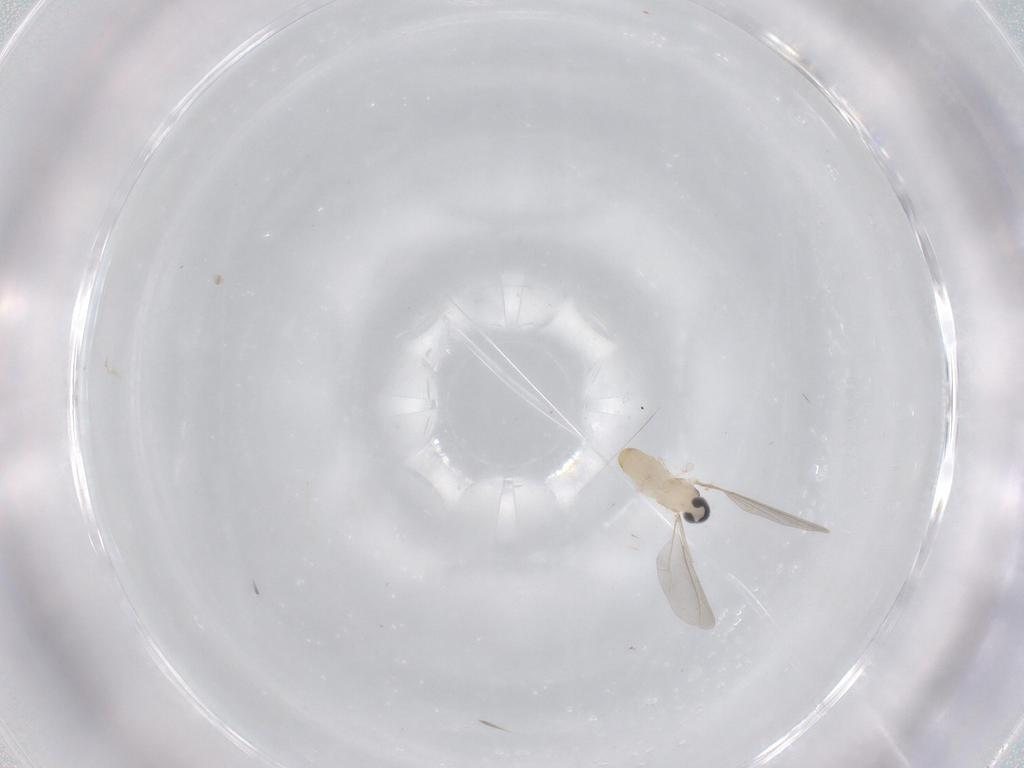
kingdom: Animalia
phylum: Arthropoda
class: Insecta
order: Diptera
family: Cecidomyiidae
